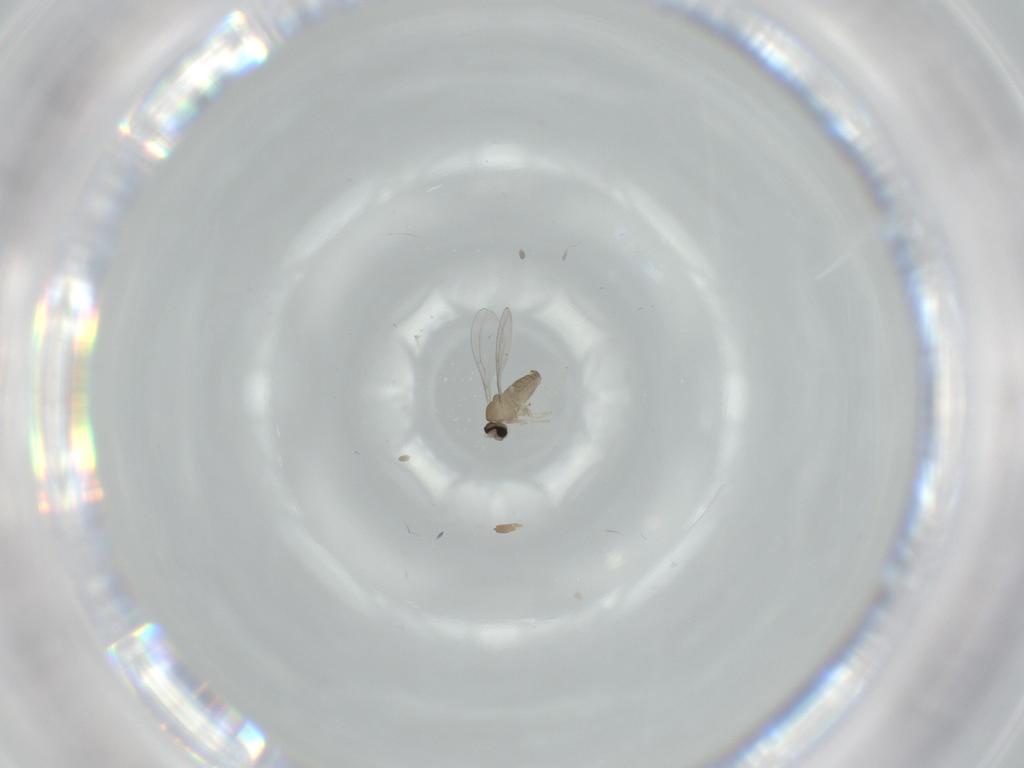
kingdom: Animalia
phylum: Arthropoda
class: Insecta
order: Diptera
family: Cecidomyiidae
